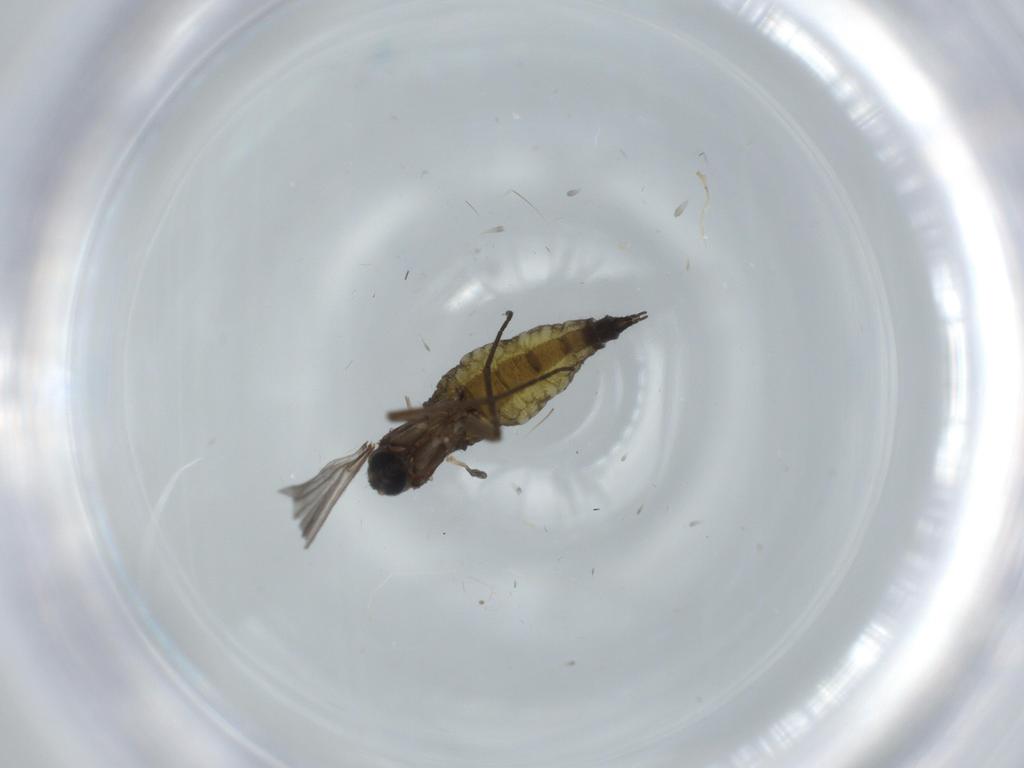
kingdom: Animalia
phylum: Arthropoda
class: Insecta
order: Diptera
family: Sciaridae
